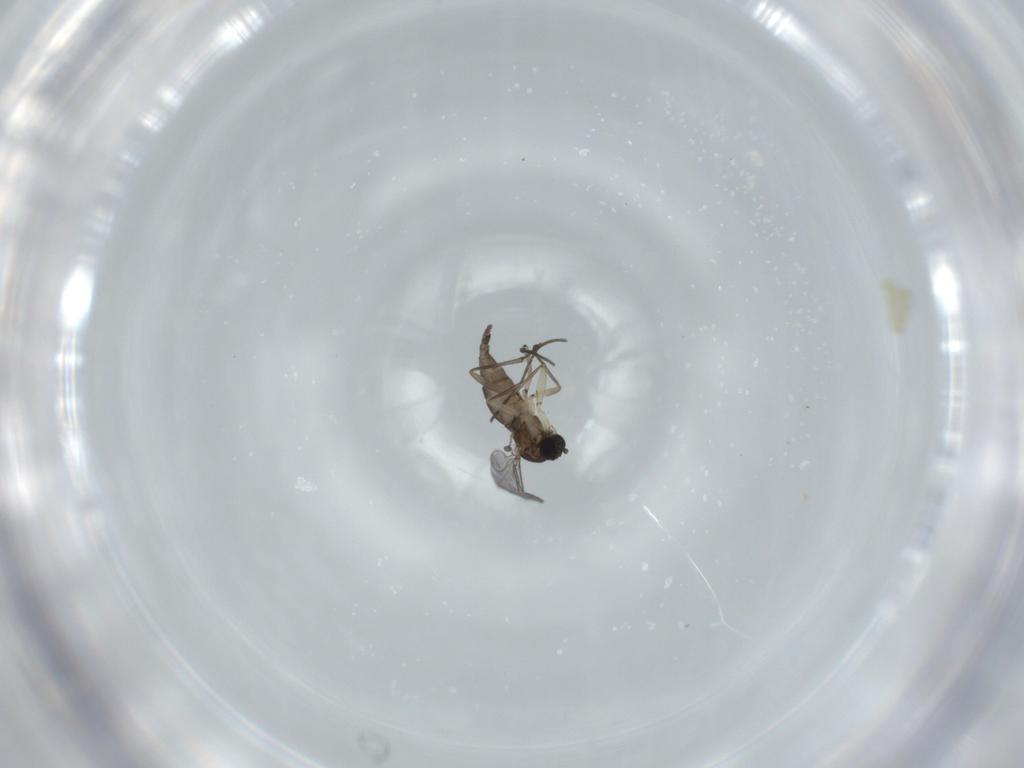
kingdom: Animalia
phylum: Arthropoda
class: Insecta
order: Diptera
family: Sciaridae
